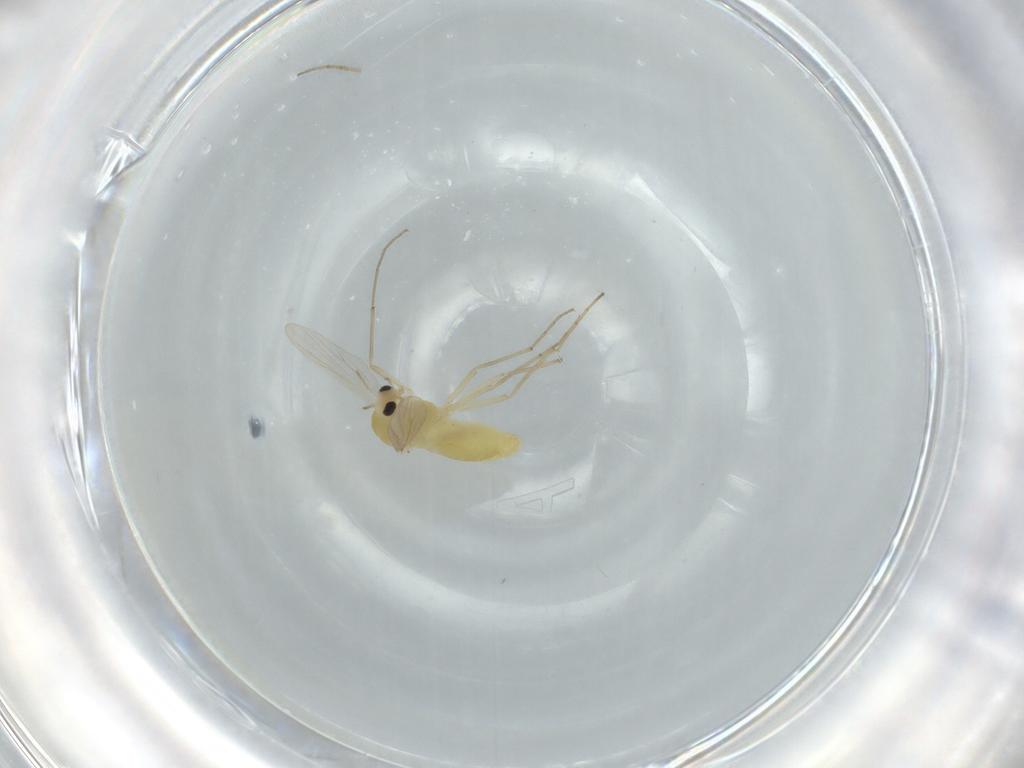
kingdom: Animalia
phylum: Arthropoda
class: Insecta
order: Diptera
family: Chironomidae
